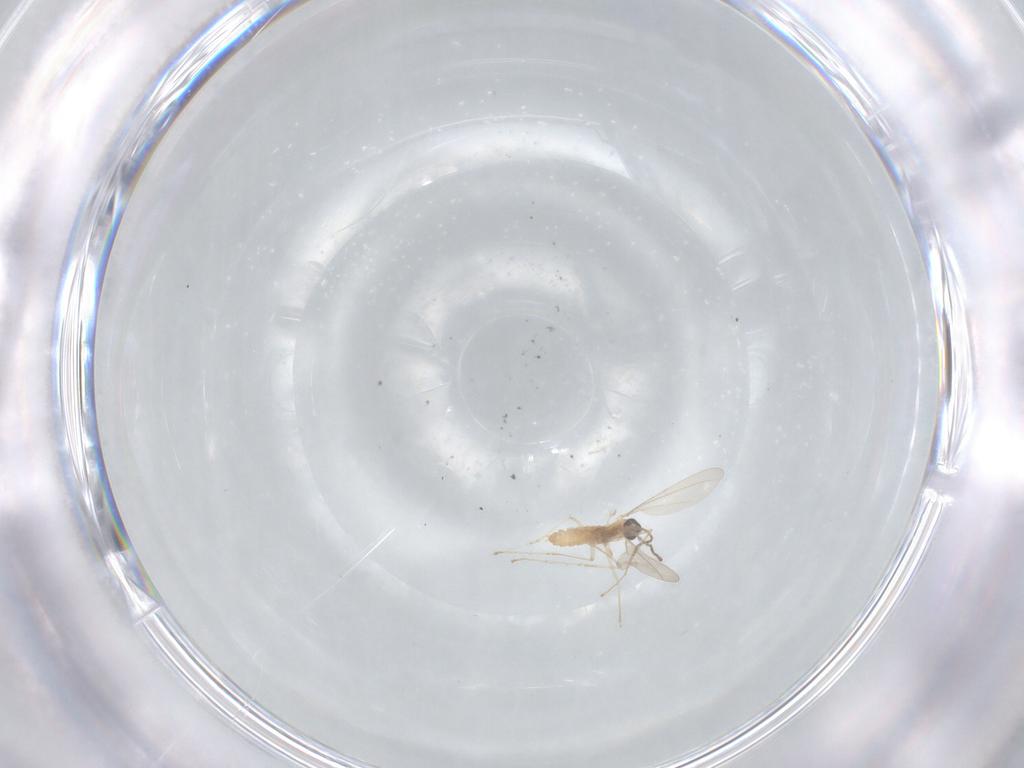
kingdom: Animalia
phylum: Arthropoda
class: Insecta
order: Diptera
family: Cecidomyiidae
